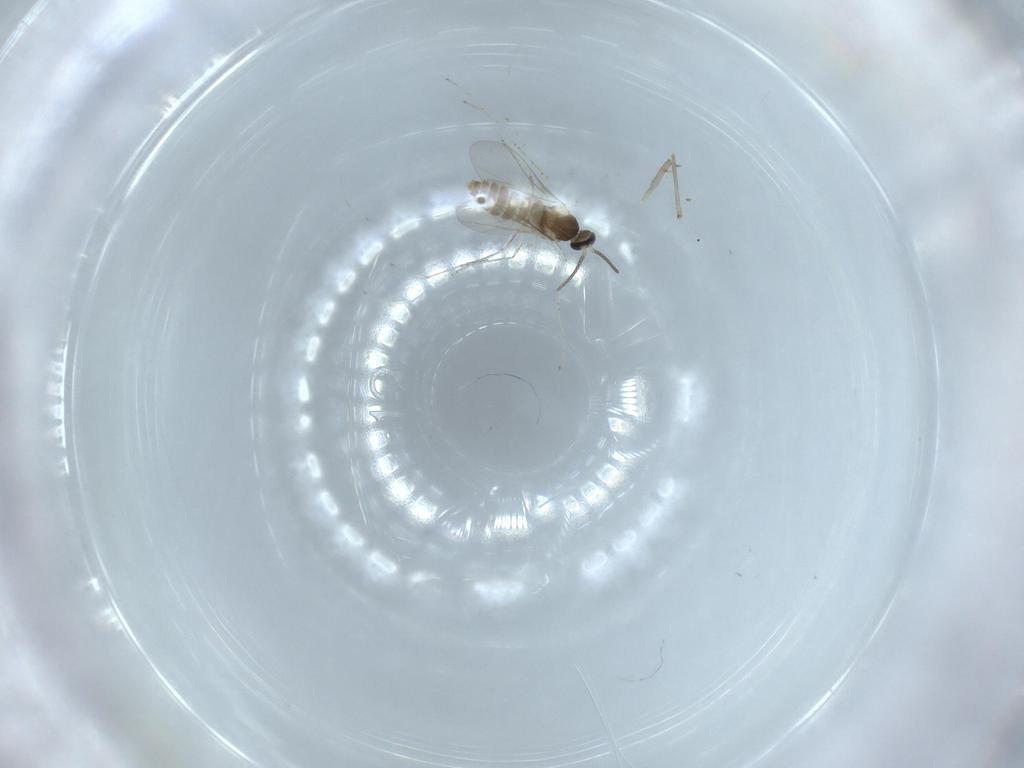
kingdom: Animalia
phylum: Arthropoda
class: Insecta
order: Diptera
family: Cecidomyiidae
